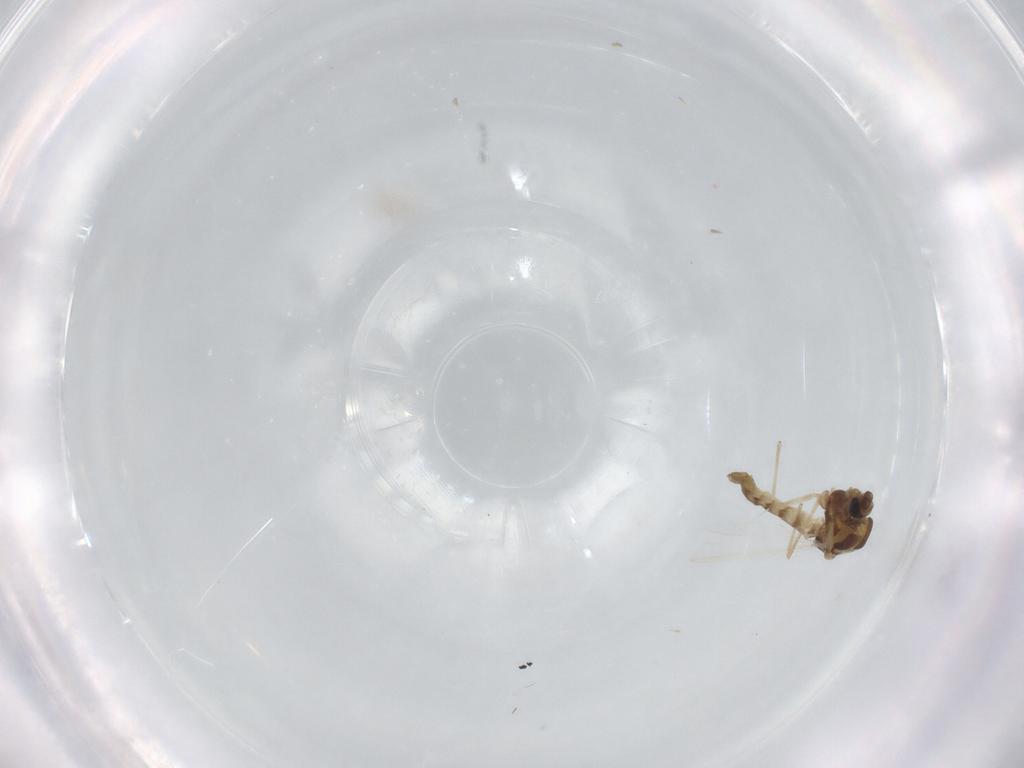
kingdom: Animalia
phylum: Arthropoda
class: Insecta
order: Diptera
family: Chironomidae
